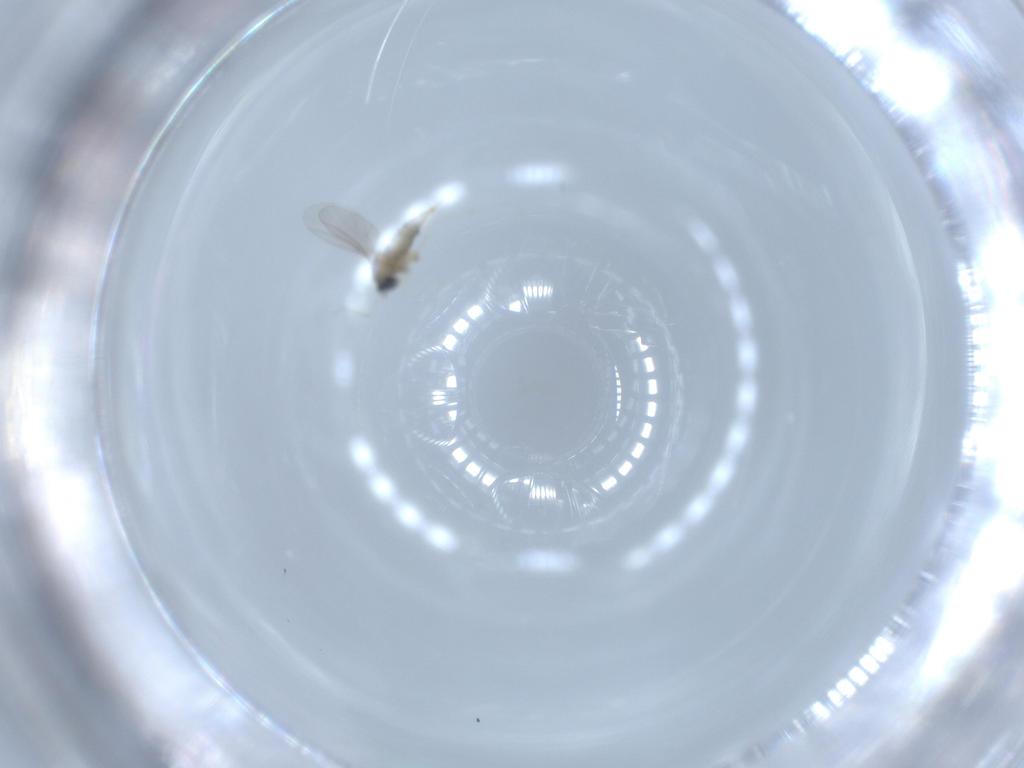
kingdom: Animalia
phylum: Arthropoda
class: Insecta
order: Diptera
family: Cecidomyiidae
